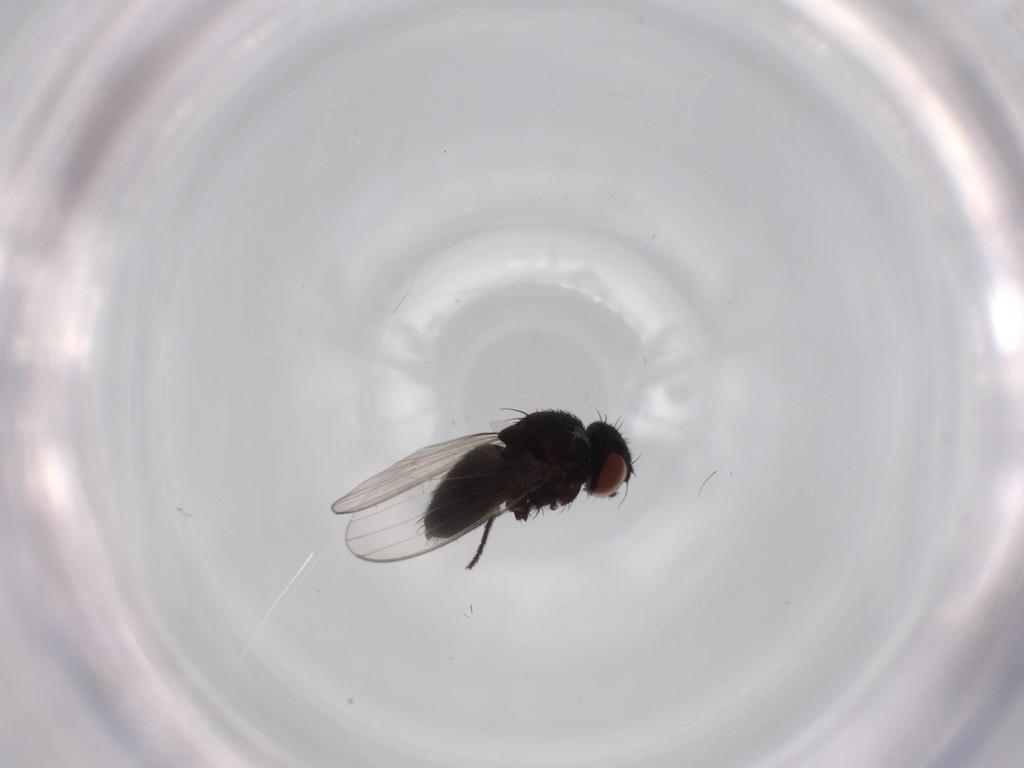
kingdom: Animalia
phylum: Arthropoda
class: Insecta
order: Diptera
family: Milichiidae
